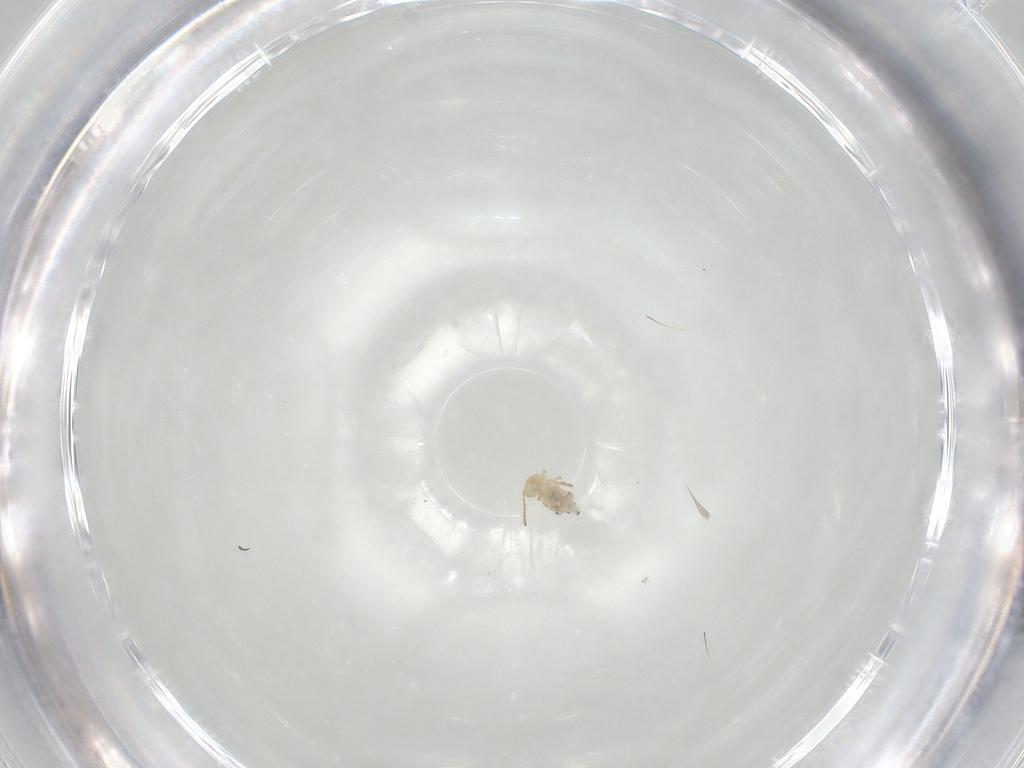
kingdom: Animalia
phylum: Arthropoda
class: Collembola
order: Symphypleona
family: Bourletiellidae
